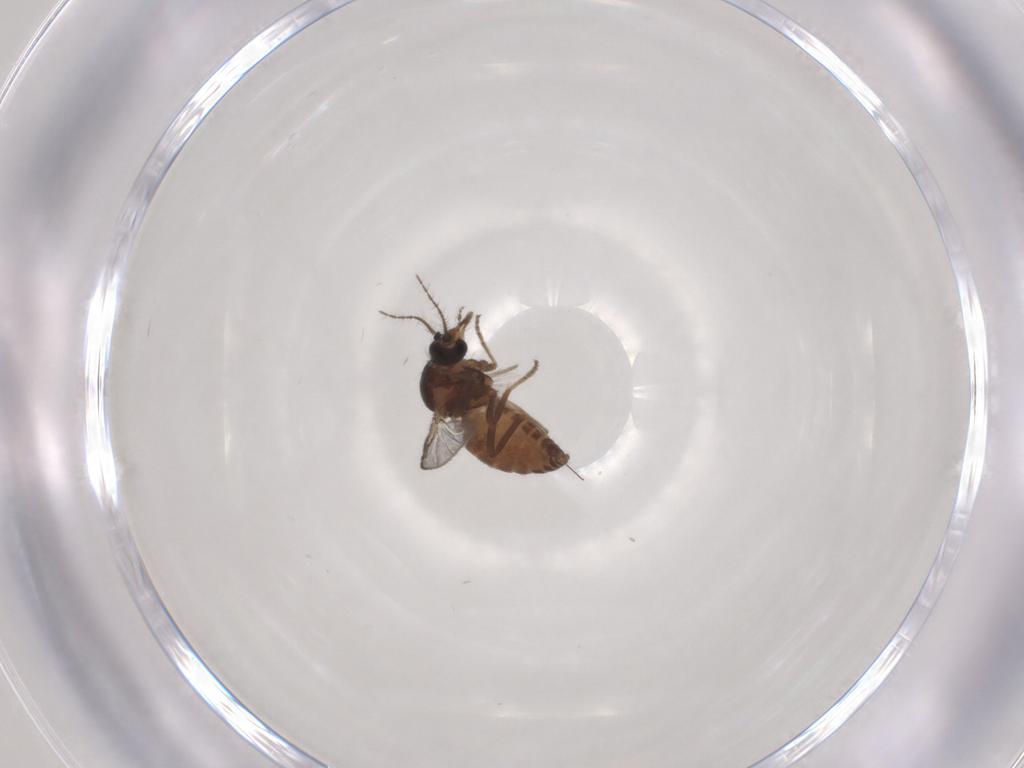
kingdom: Animalia
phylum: Arthropoda
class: Insecta
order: Diptera
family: Ceratopogonidae
